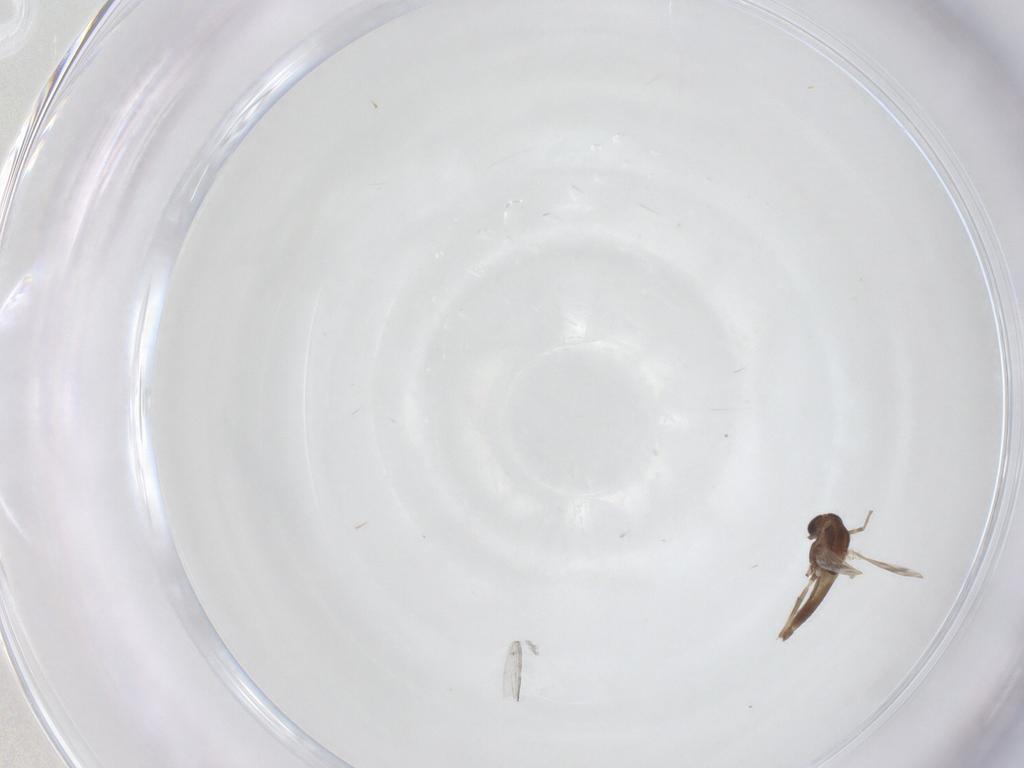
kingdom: Animalia
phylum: Arthropoda
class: Insecta
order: Diptera
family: Chironomidae
